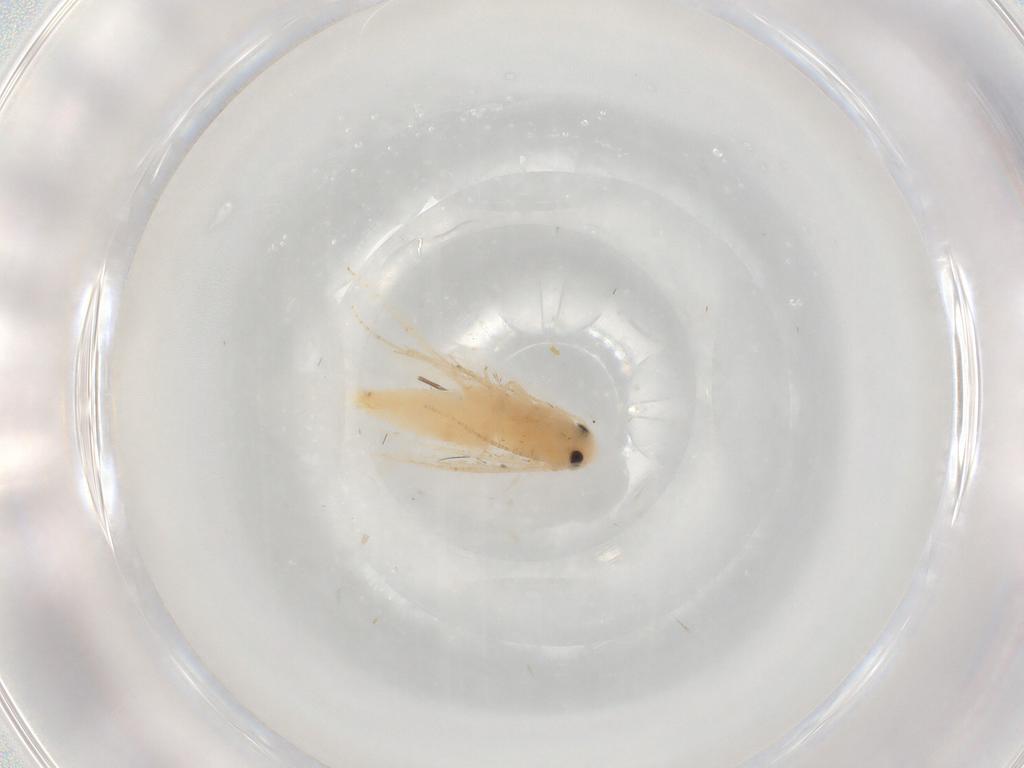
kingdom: Animalia
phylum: Arthropoda
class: Insecta
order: Lepidoptera
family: Gracillariidae
